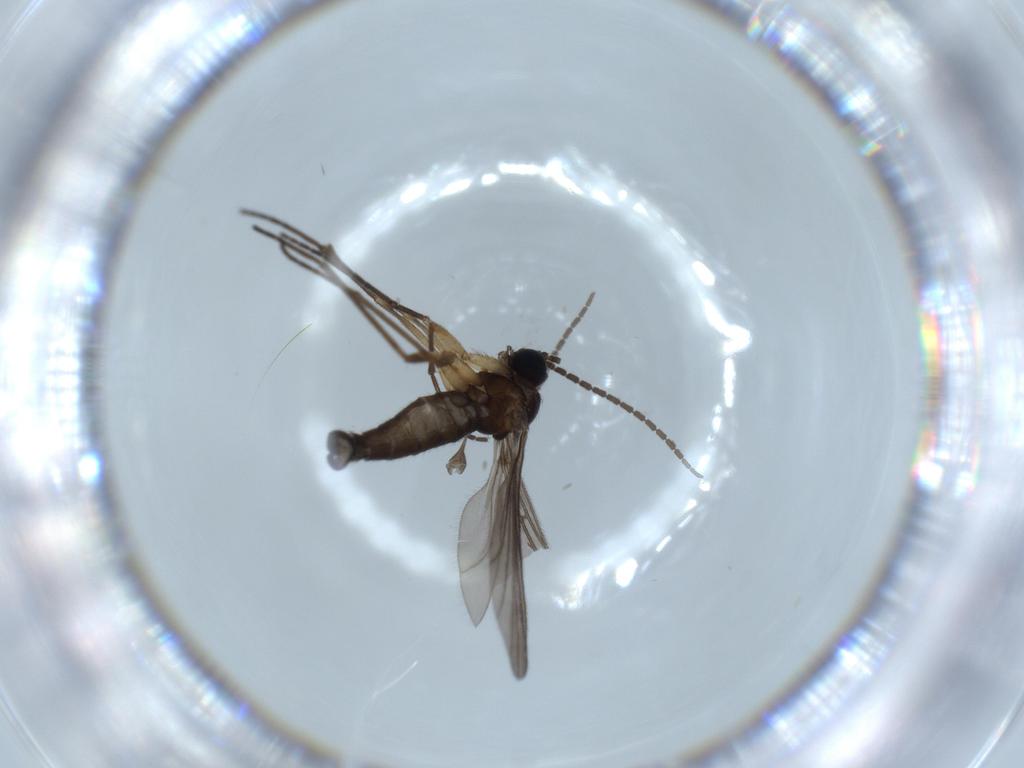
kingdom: Animalia
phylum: Arthropoda
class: Insecta
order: Diptera
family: Sciaridae
